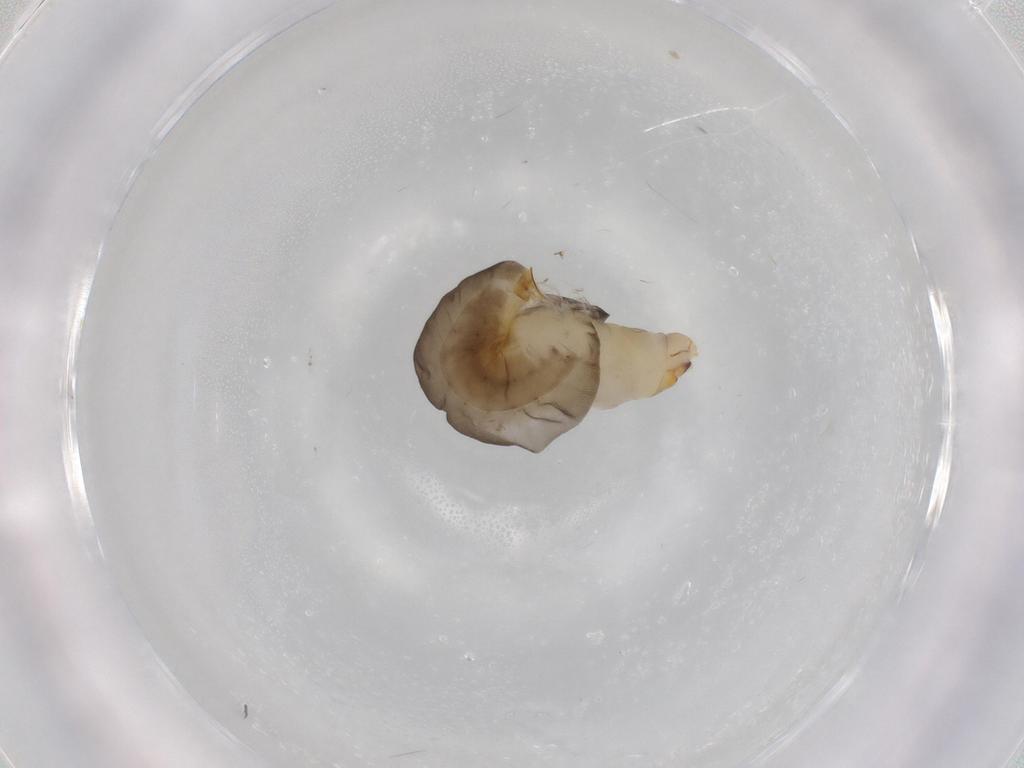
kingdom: Animalia
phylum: Arthropoda
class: Insecta
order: Hymenoptera
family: Dryinidae
